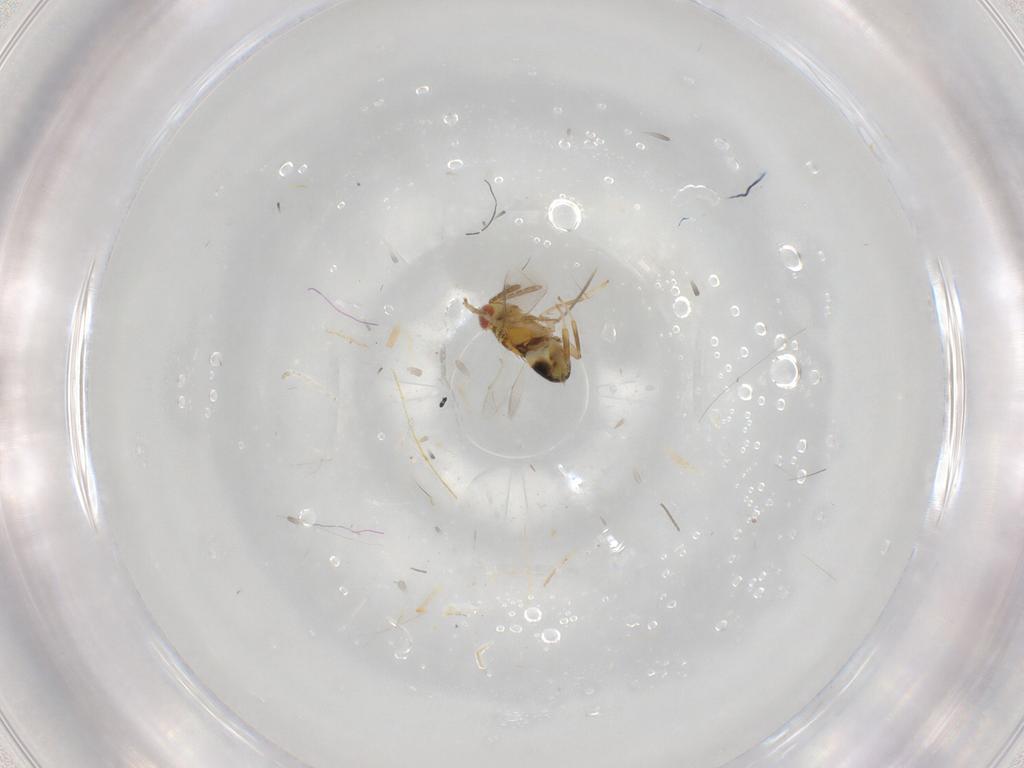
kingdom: Animalia
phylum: Arthropoda
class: Insecta
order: Hymenoptera
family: Aphelinidae
